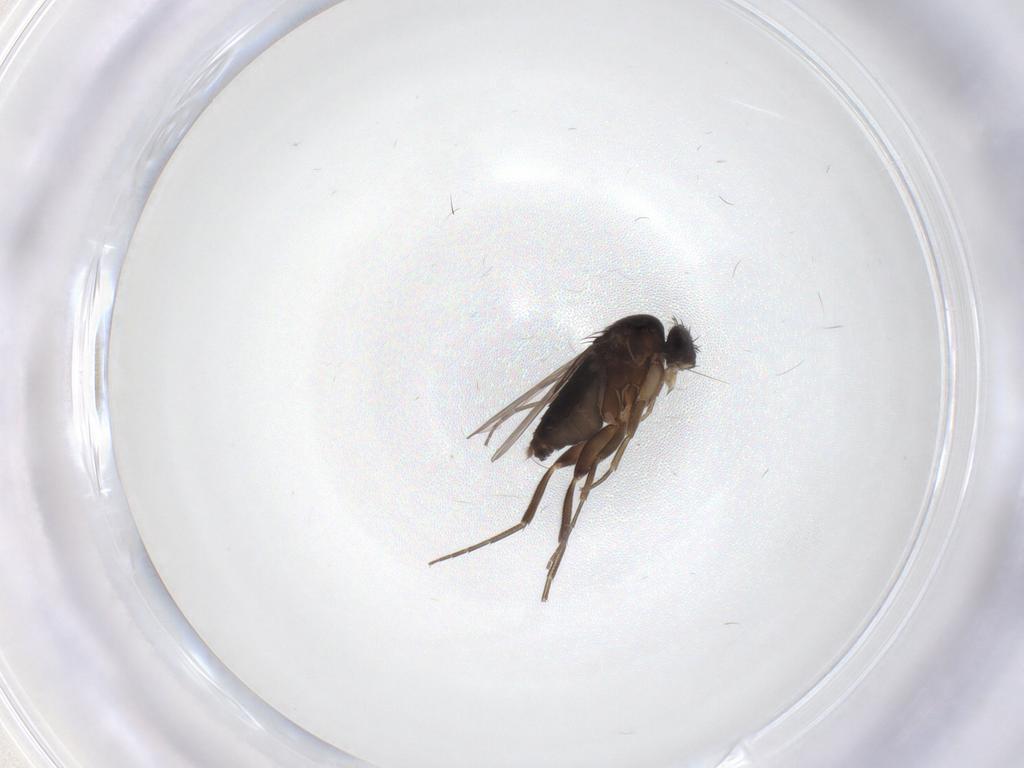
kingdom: Animalia
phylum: Arthropoda
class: Insecta
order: Diptera
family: Phoridae
